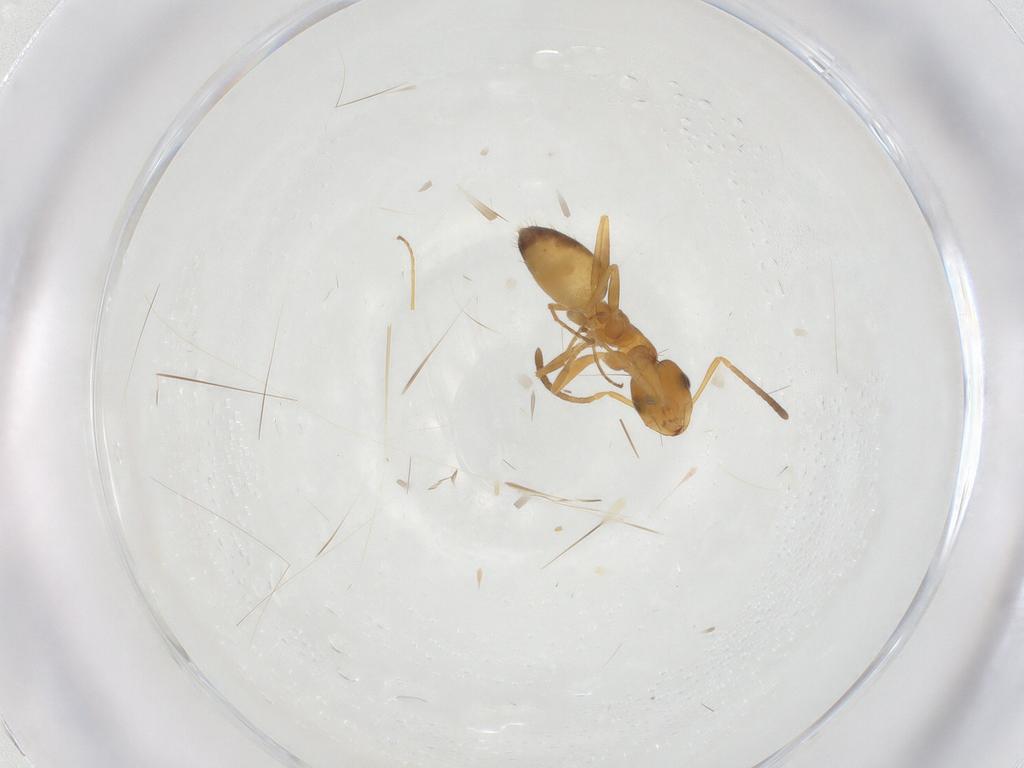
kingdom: Animalia
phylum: Arthropoda
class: Insecta
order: Hymenoptera
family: Formicidae
